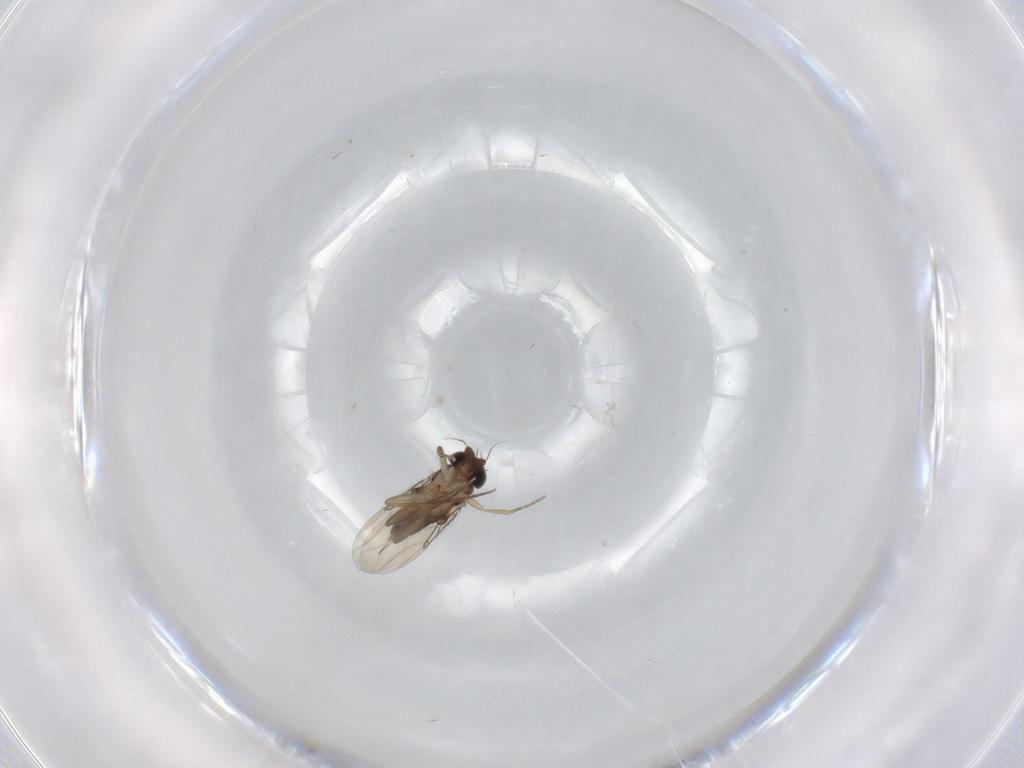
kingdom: Animalia
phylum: Arthropoda
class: Insecta
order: Diptera
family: Phoridae
